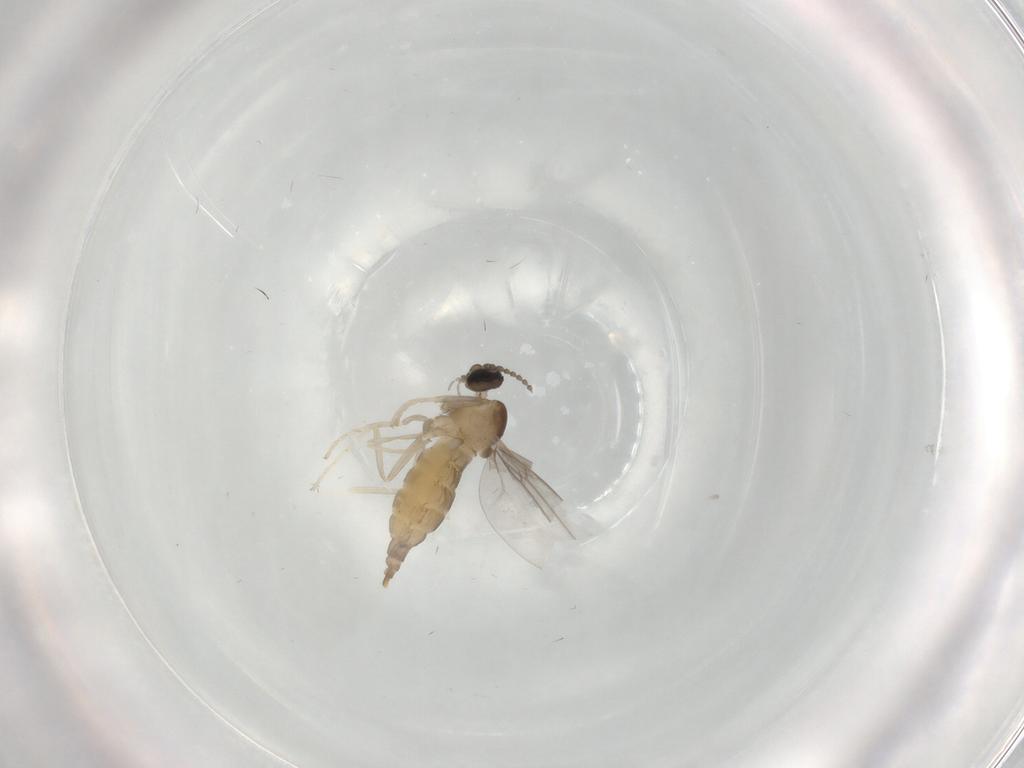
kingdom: Animalia
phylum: Arthropoda
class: Insecta
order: Diptera
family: Cecidomyiidae
